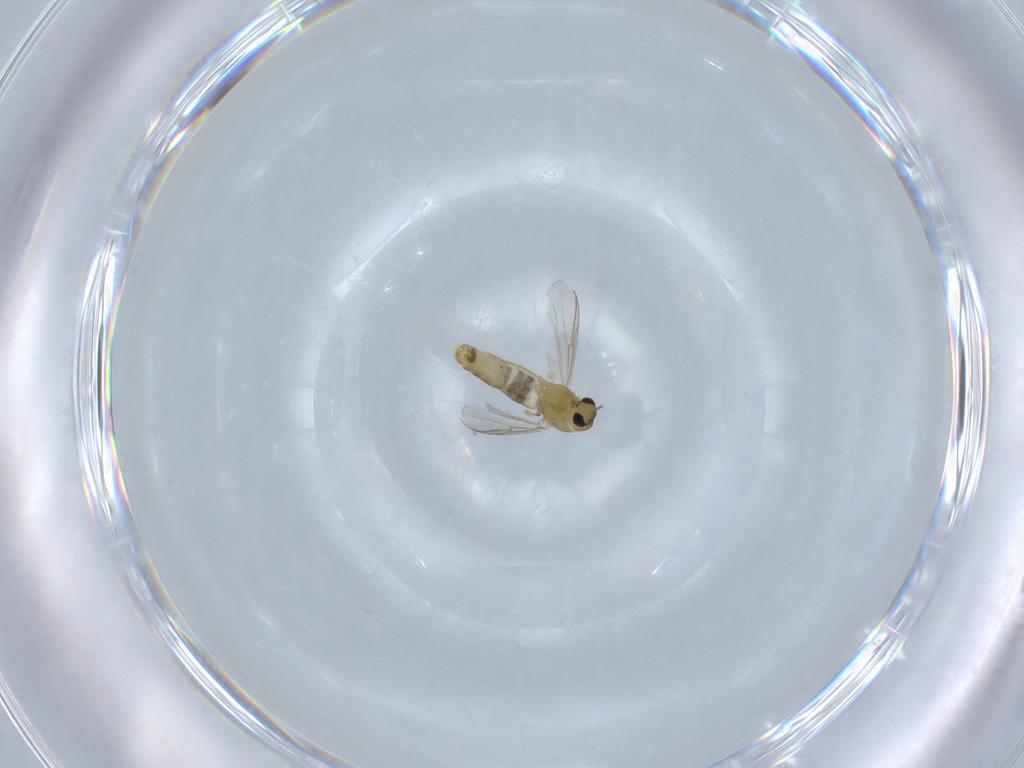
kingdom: Animalia
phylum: Arthropoda
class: Insecta
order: Diptera
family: Chironomidae
